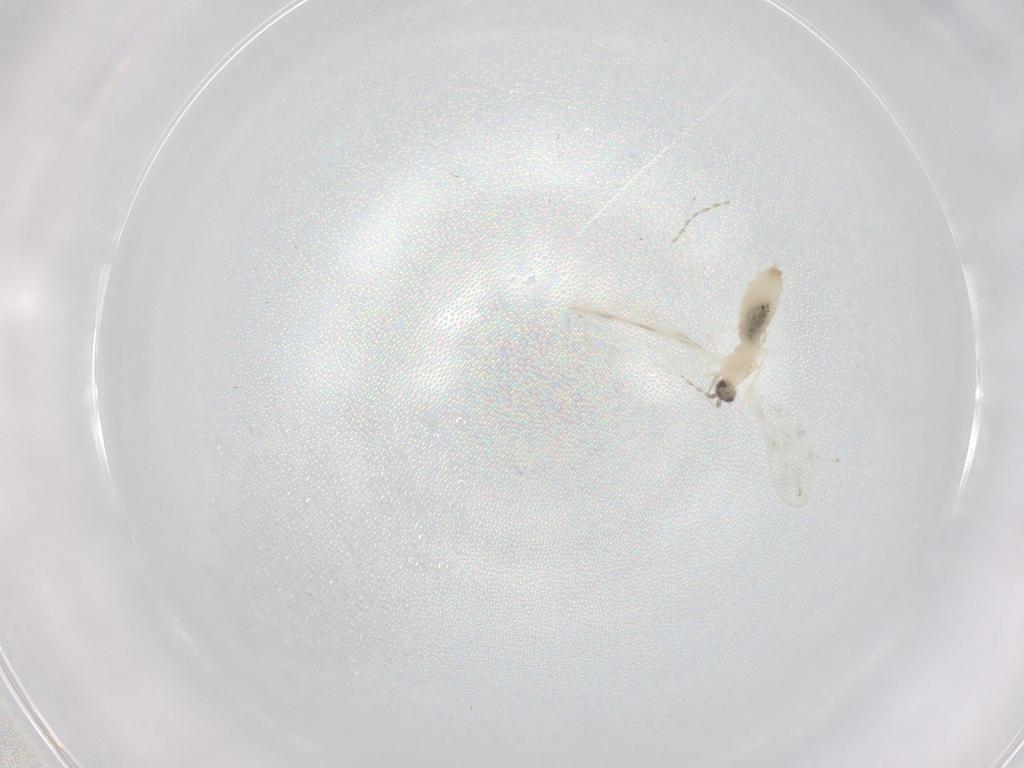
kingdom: Animalia
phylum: Arthropoda
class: Insecta
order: Diptera
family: Cecidomyiidae
